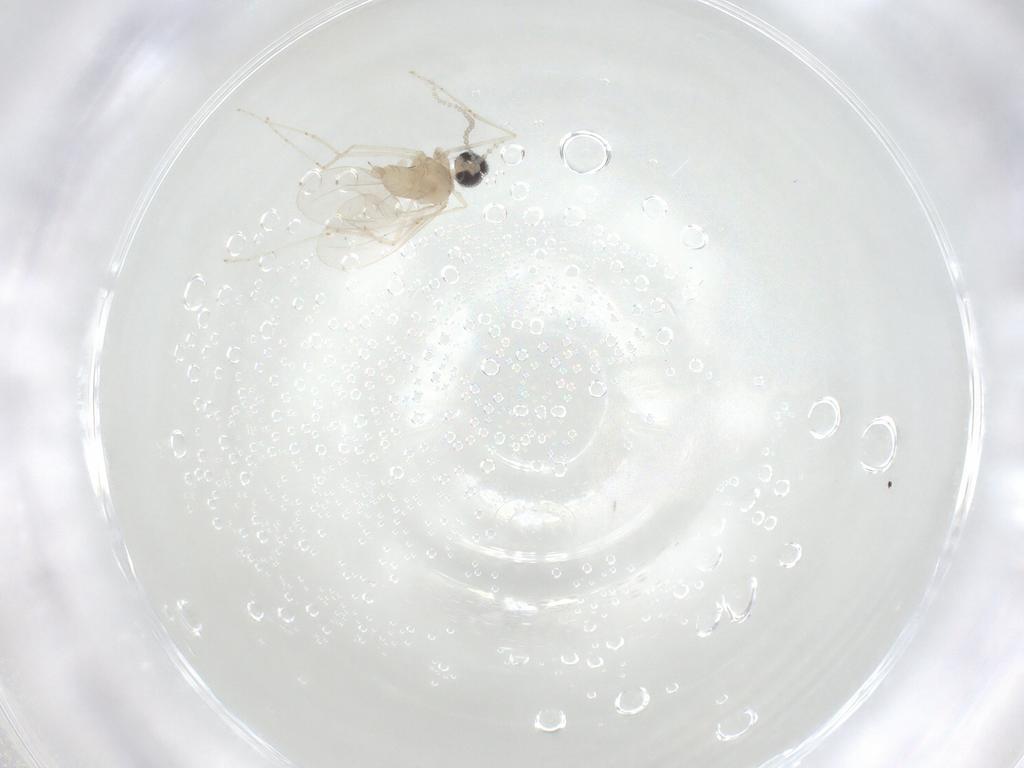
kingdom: Animalia
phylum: Arthropoda
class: Insecta
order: Diptera
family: Cecidomyiidae
